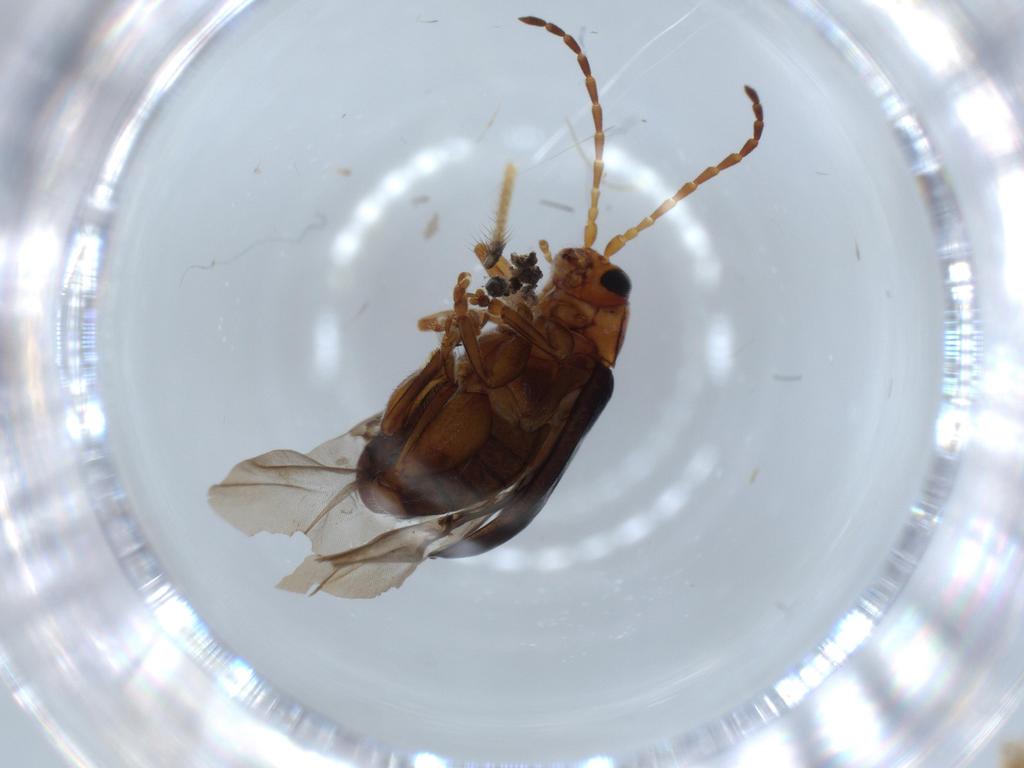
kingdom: Animalia
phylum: Arthropoda
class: Insecta
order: Coleoptera
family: Chrysomelidae
